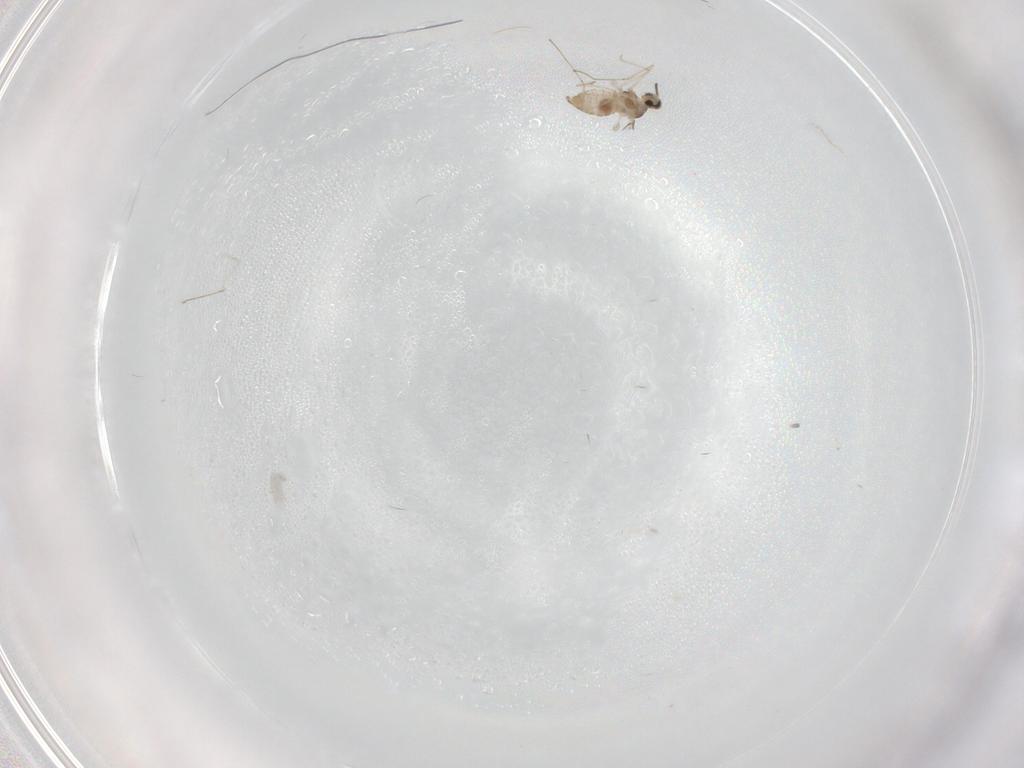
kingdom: Animalia
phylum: Arthropoda
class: Insecta
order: Diptera
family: Cecidomyiidae
